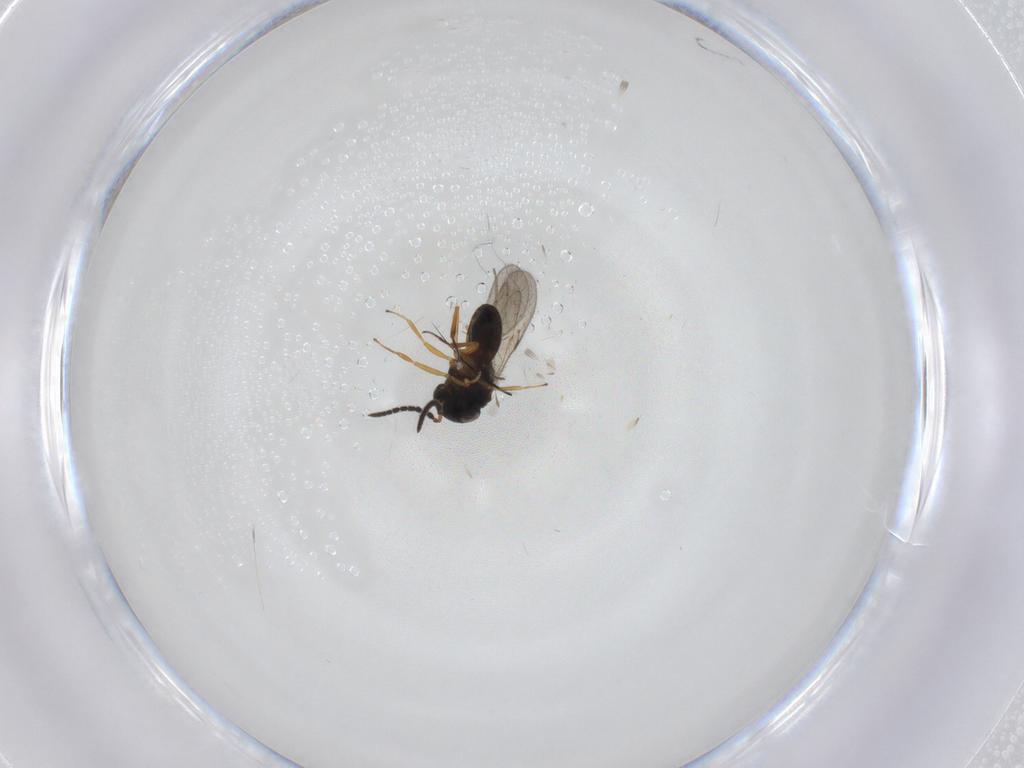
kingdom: Animalia
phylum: Arthropoda
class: Insecta
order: Hymenoptera
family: Scelionidae
